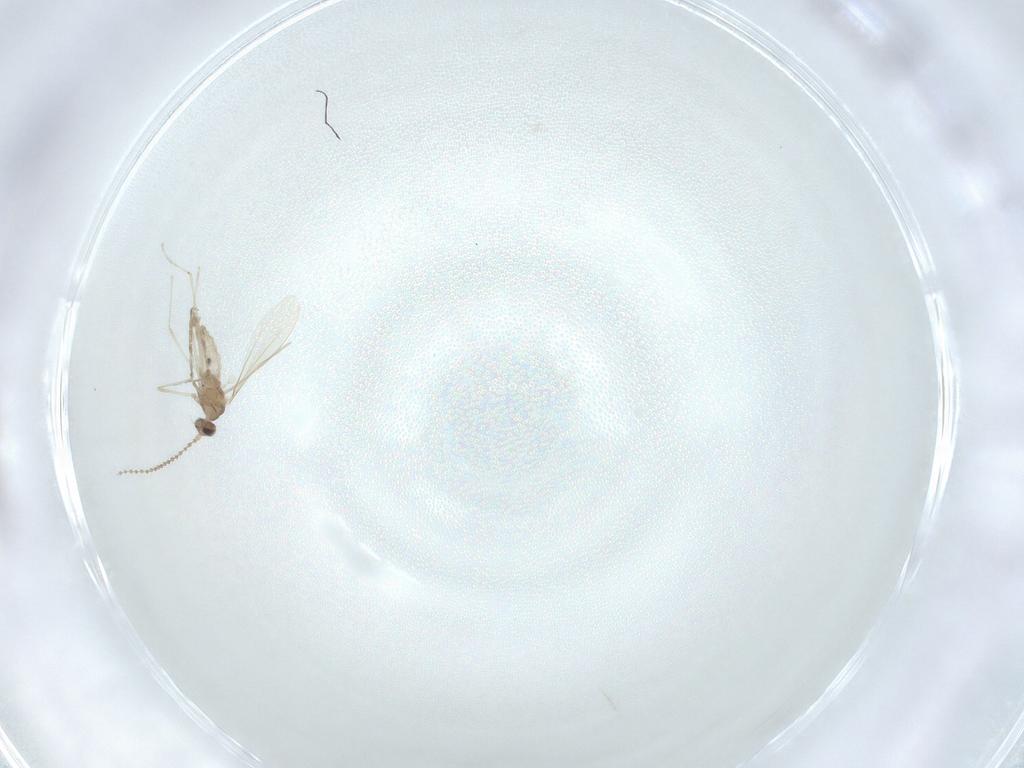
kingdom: Animalia
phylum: Arthropoda
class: Insecta
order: Diptera
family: Cecidomyiidae
